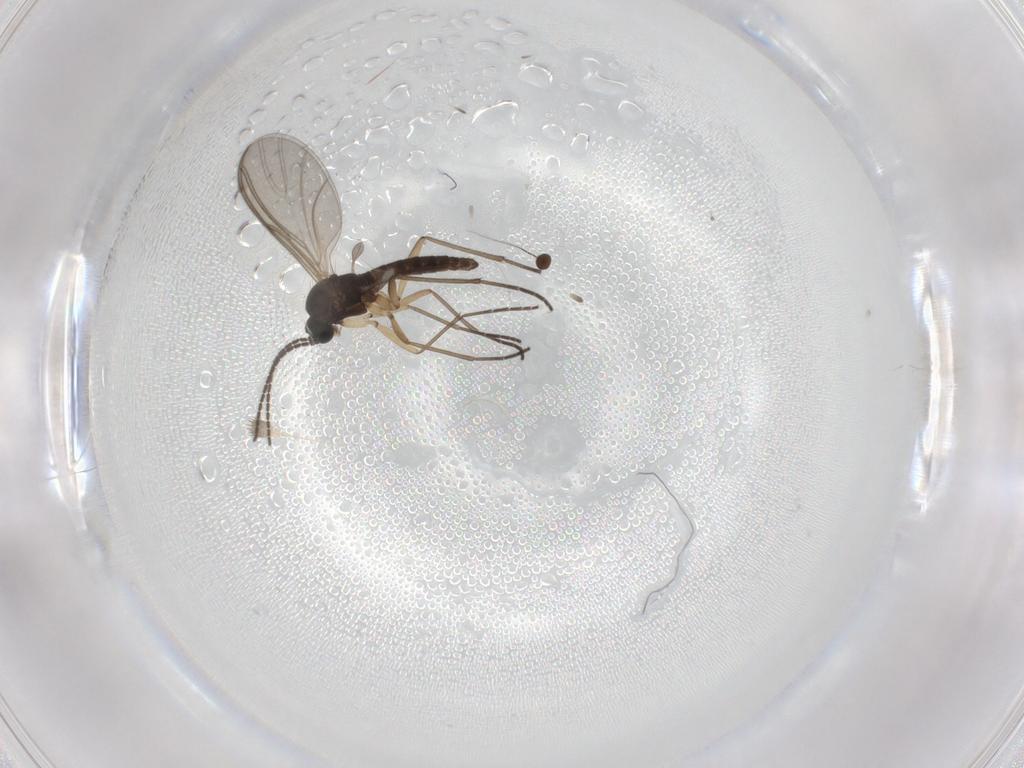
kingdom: Animalia
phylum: Arthropoda
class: Insecta
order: Diptera
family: Sciaridae
